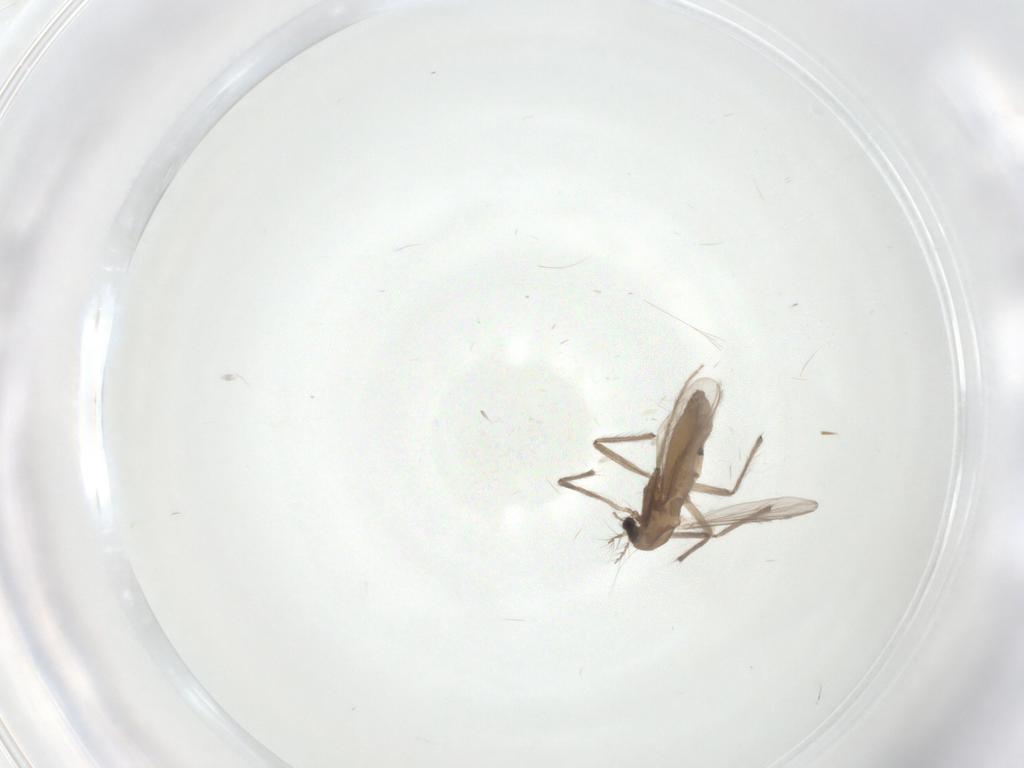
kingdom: Animalia
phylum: Arthropoda
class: Insecta
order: Diptera
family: Chironomidae
